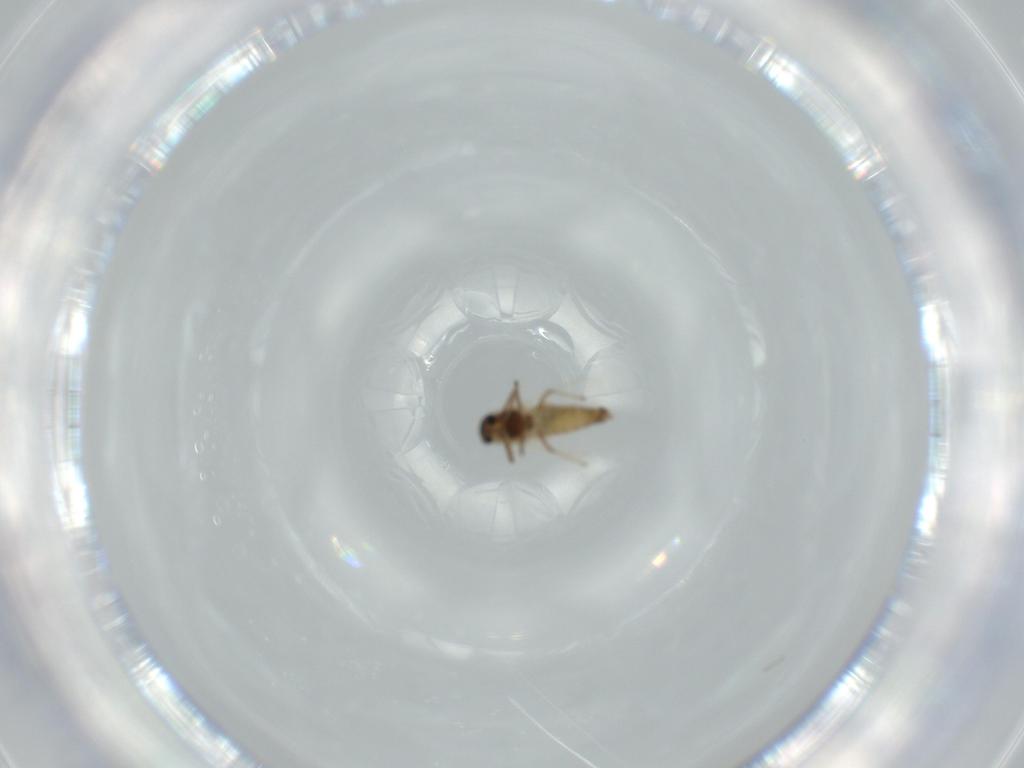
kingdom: Animalia
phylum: Arthropoda
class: Insecta
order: Diptera
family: Chironomidae
